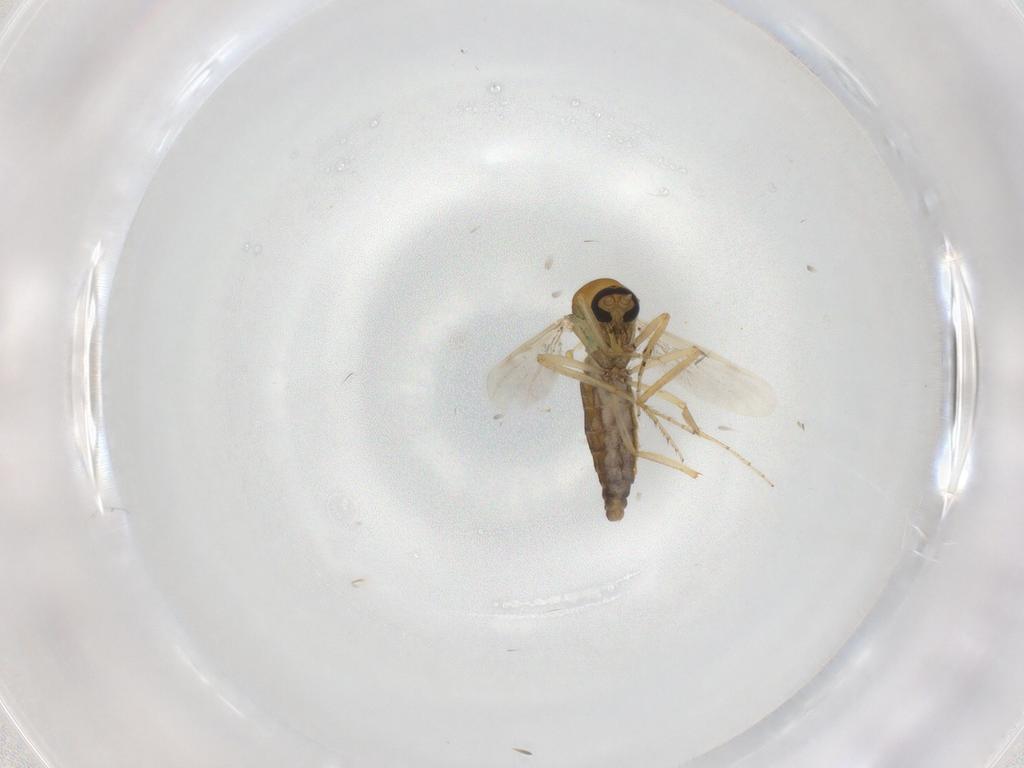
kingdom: Animalia
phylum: Arthropoda
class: Insecta
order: Diptera
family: Ceratopogonidae
